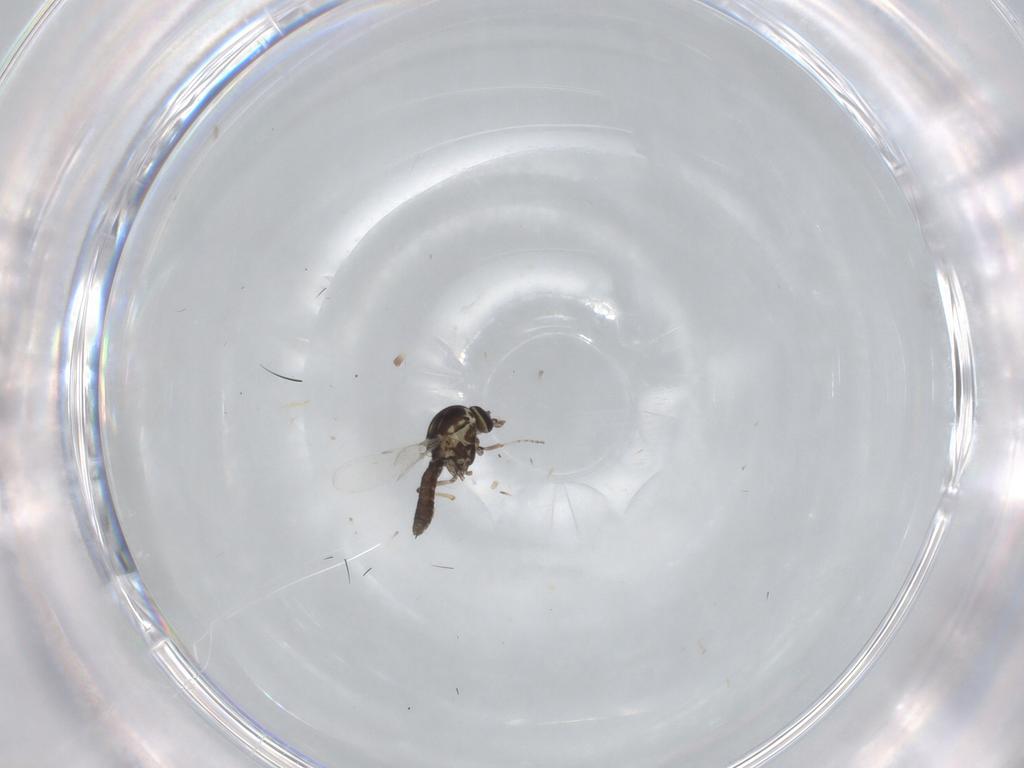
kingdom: Animalia
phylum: Arthropoda
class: Insecta
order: Diptera
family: Ceratopogonidae
